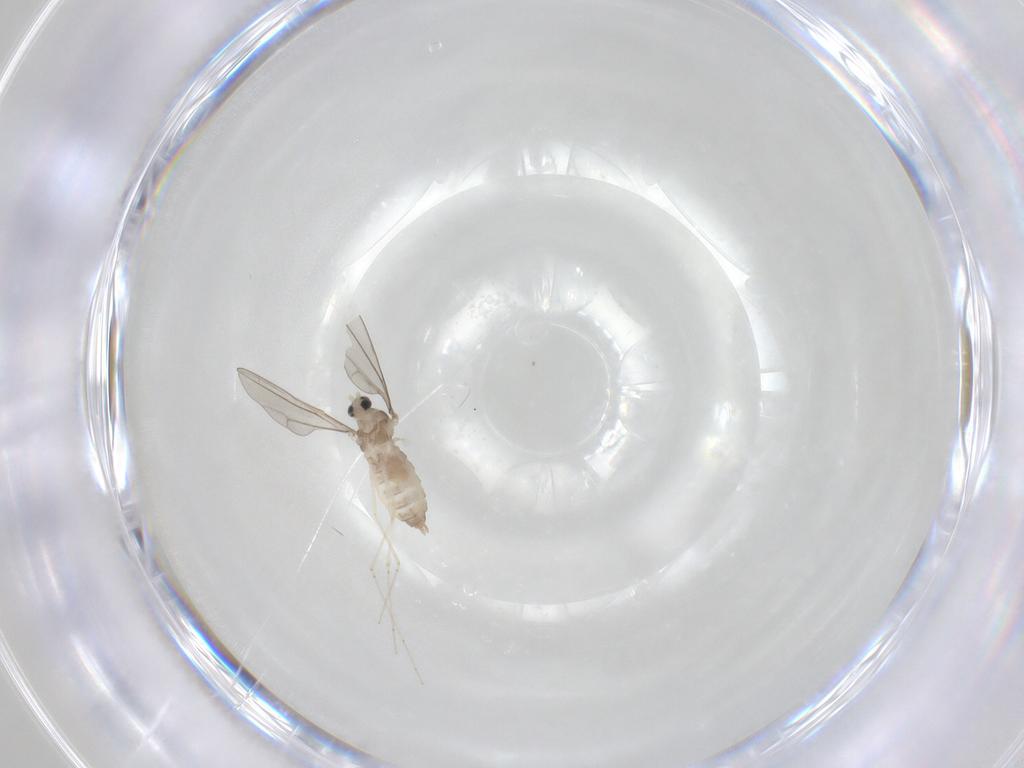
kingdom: Animalia
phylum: Arthropoda
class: Insecta
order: Diptera
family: Cecidomyiidae
